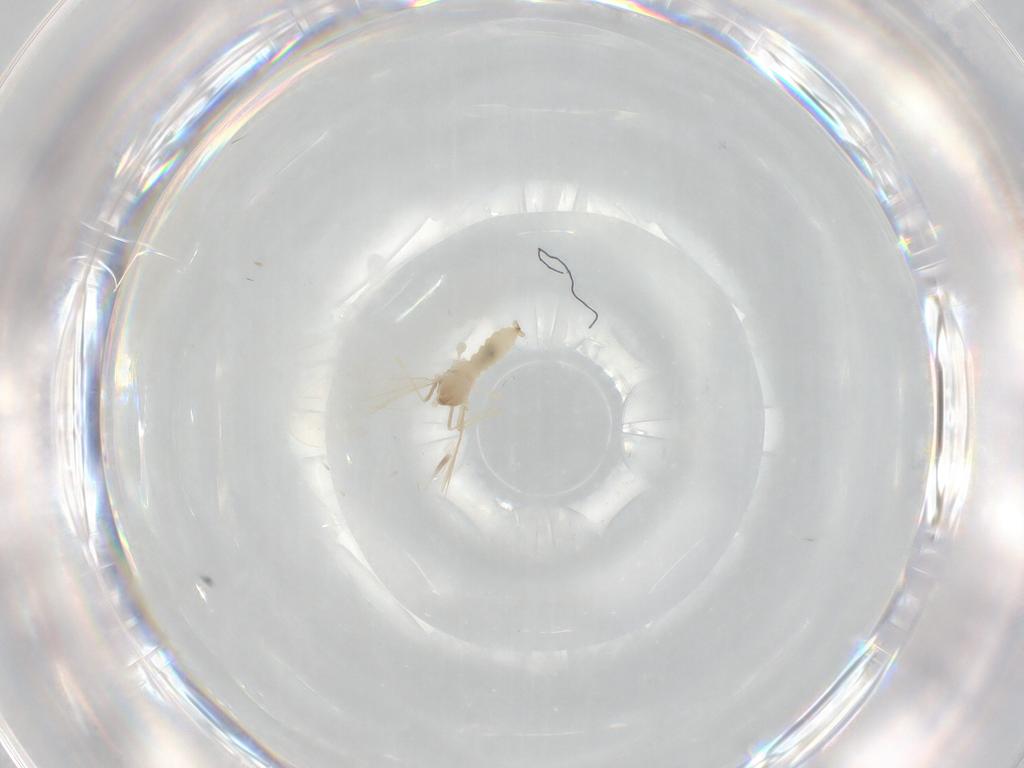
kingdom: Animalia
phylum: Arthropoda
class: Insecta
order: Diptera
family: Cecidomyiidae
